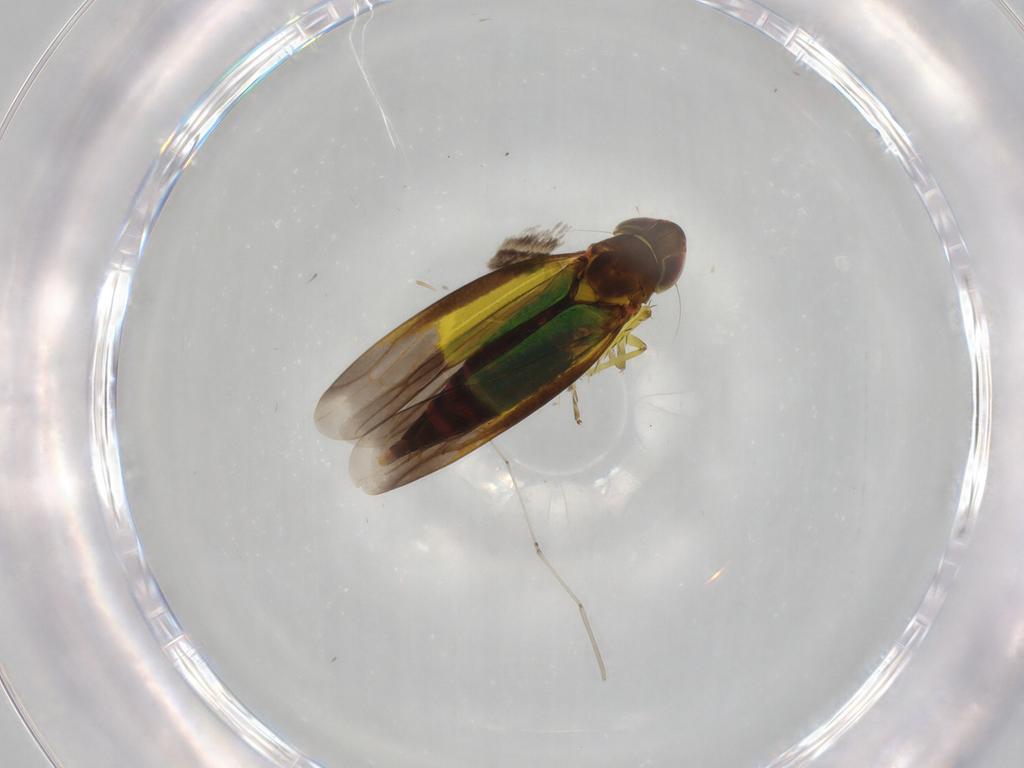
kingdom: Animalia
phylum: Arthropoda
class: Insecta
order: Hemiptera
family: Cicadellidae
